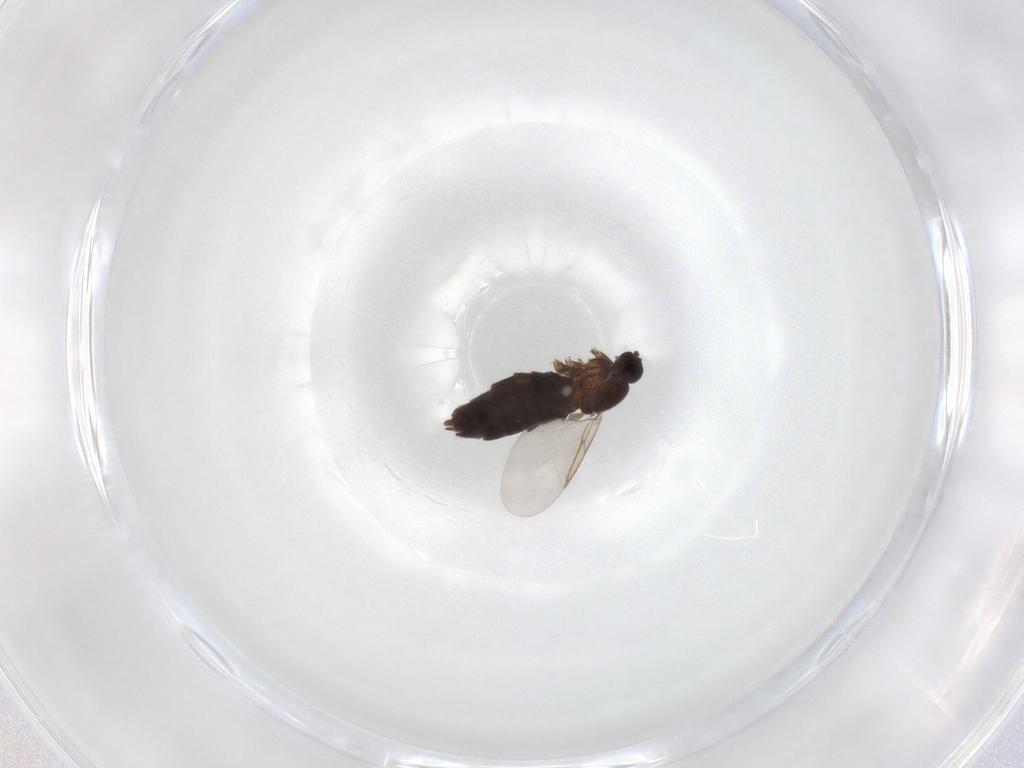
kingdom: Animalia
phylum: Arthropoda
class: Insecta
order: Diptera
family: Scatopsidae
